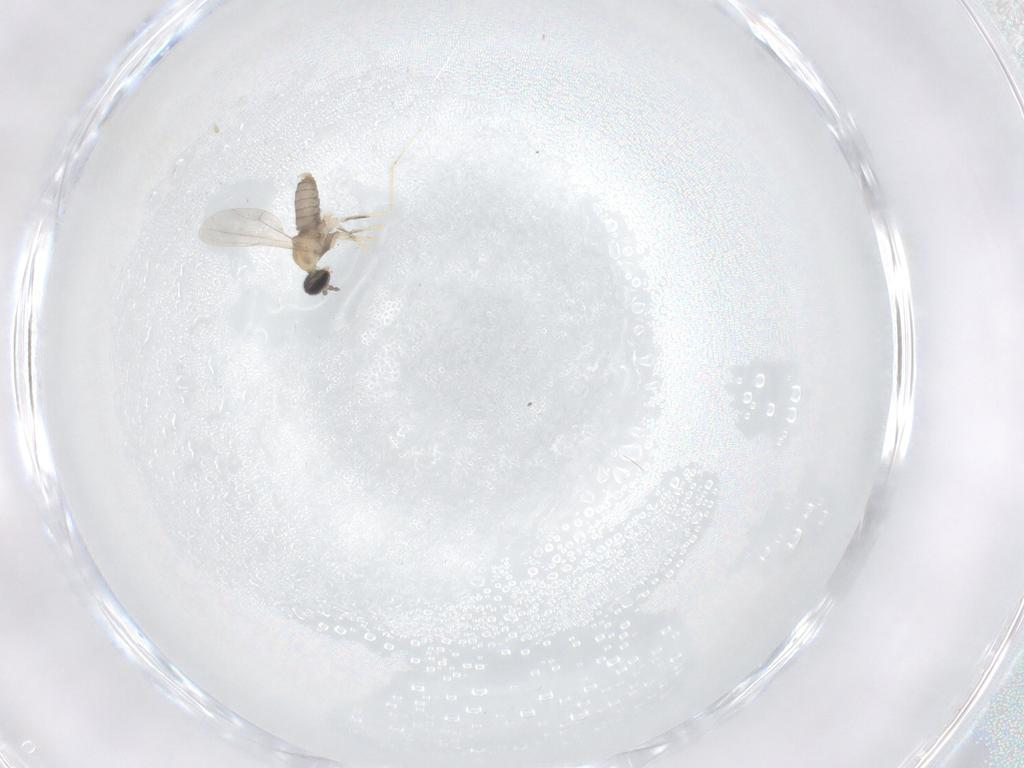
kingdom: Animalia
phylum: Arthropoda
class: Insecta
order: Diptera
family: Cecidomyiidae
